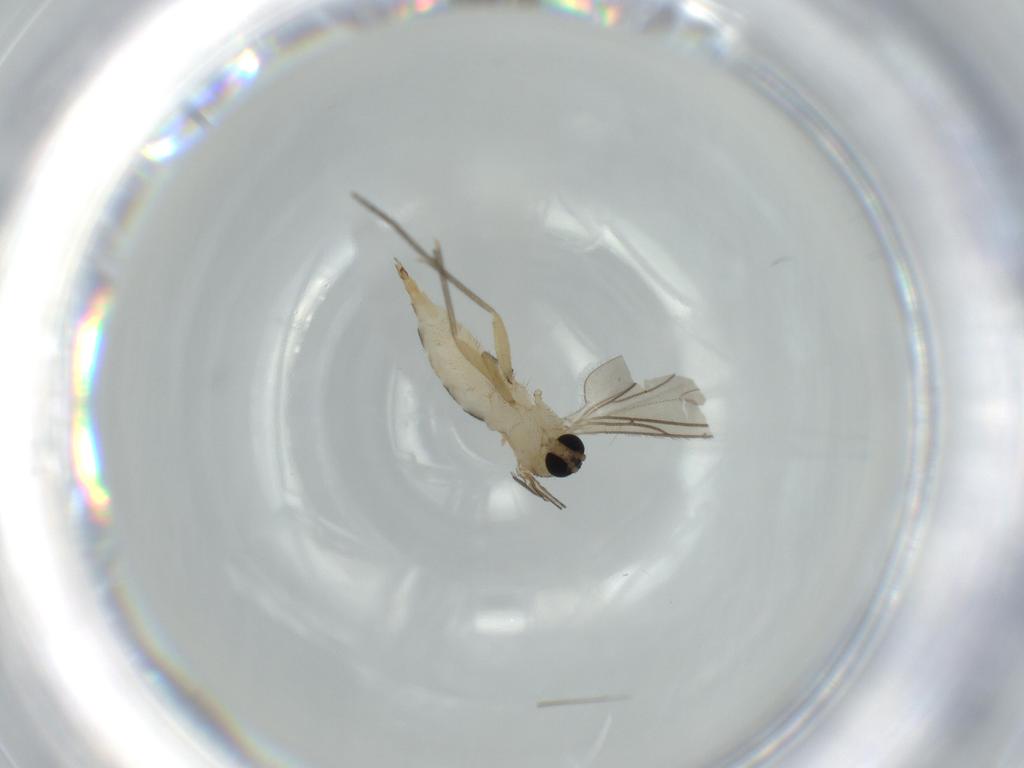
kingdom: Animalia
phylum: Arthropoda
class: Insecta
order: Diptera
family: Sciaridae
